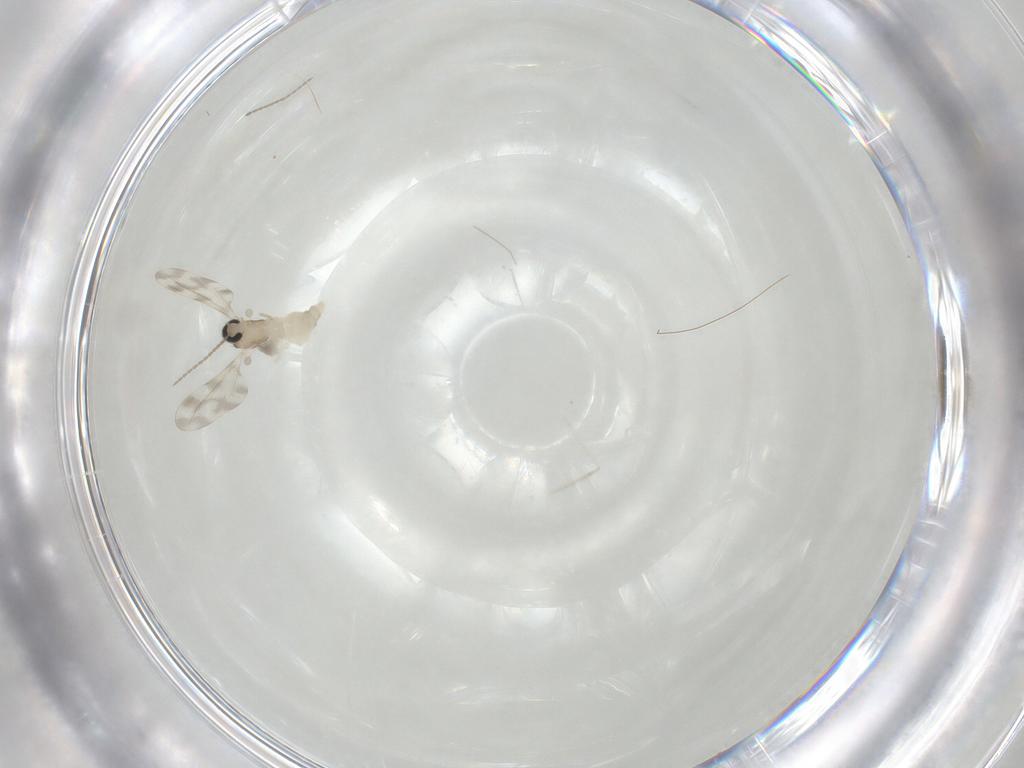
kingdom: Animalia
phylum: Arthropoda
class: Insecta
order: Diptera
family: Cecidomyiidae
